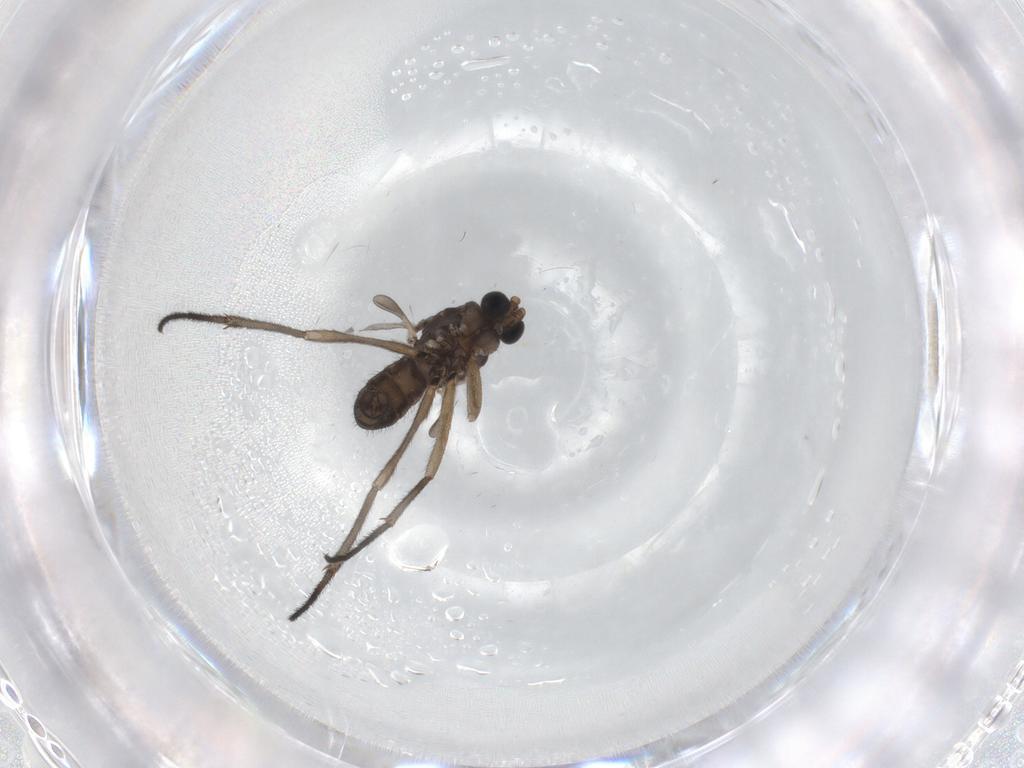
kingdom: Animalia
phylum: Arthropoda
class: Insecta
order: Diptera
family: Sciaridae
